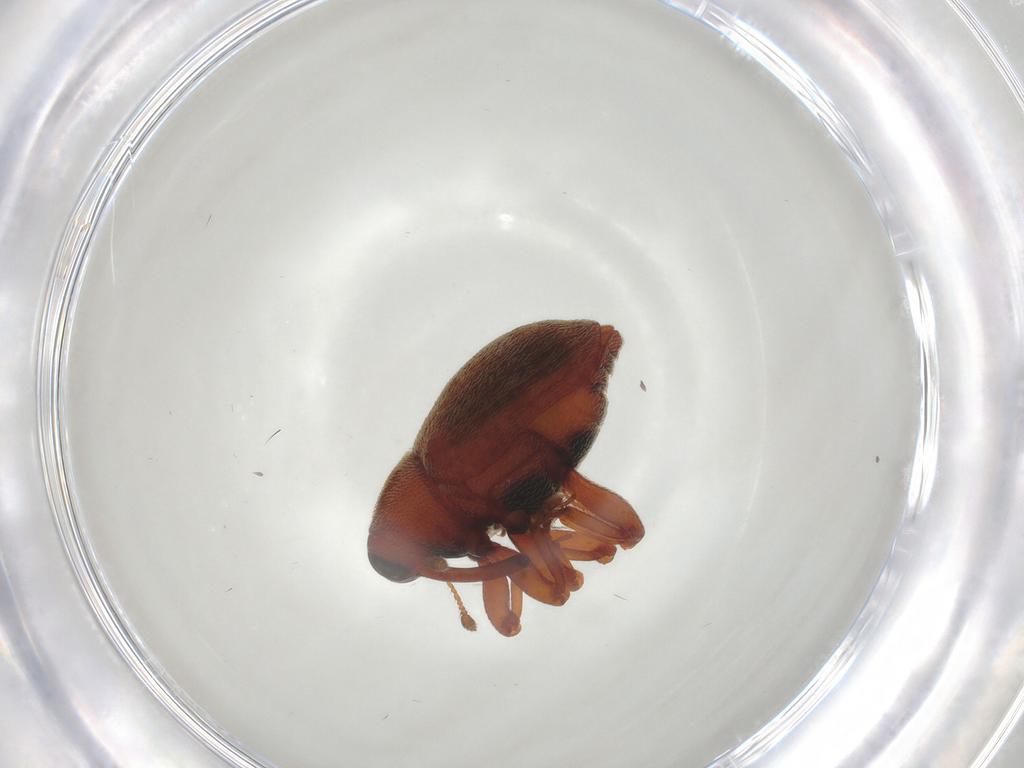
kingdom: Animalia
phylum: Arthropoda
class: Insecta
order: Coleoptera
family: Curculionidae
